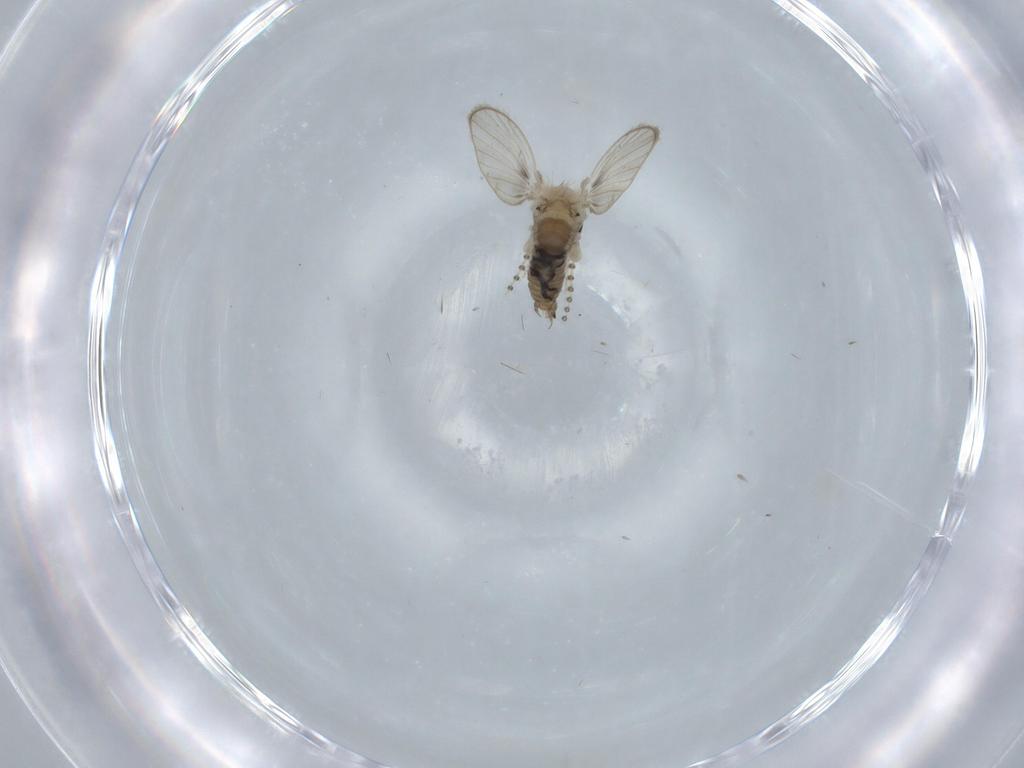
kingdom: Animalia
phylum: Arthropoda
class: Insecta
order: Diptera
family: Psychodidae
